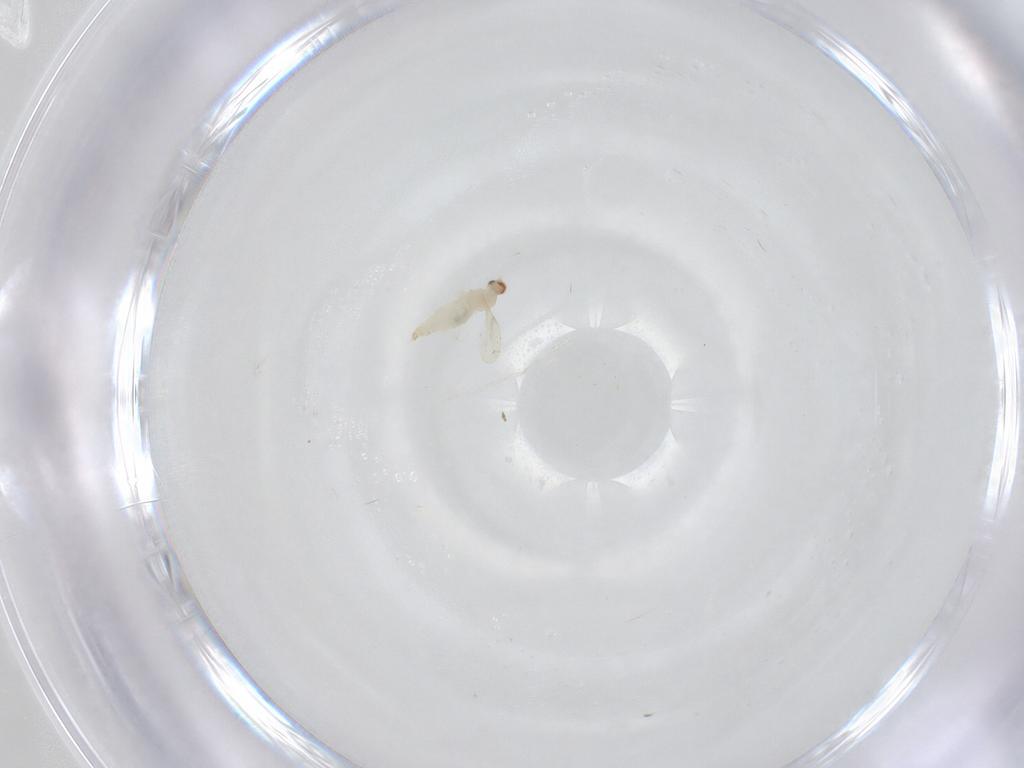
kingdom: Animalia
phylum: Arthropoda
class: Insecta
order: Diptera
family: Cecidomyiidae
